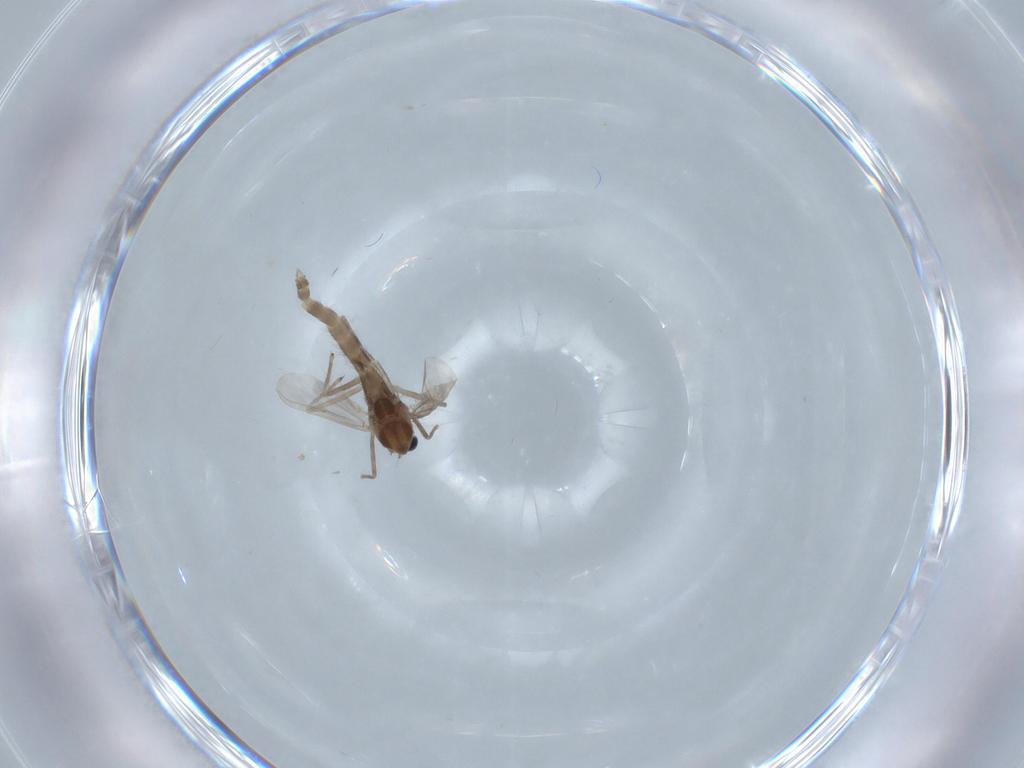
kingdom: Animalia
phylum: Arthropoda
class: Insecta
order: Diptera
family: Chironomidae
